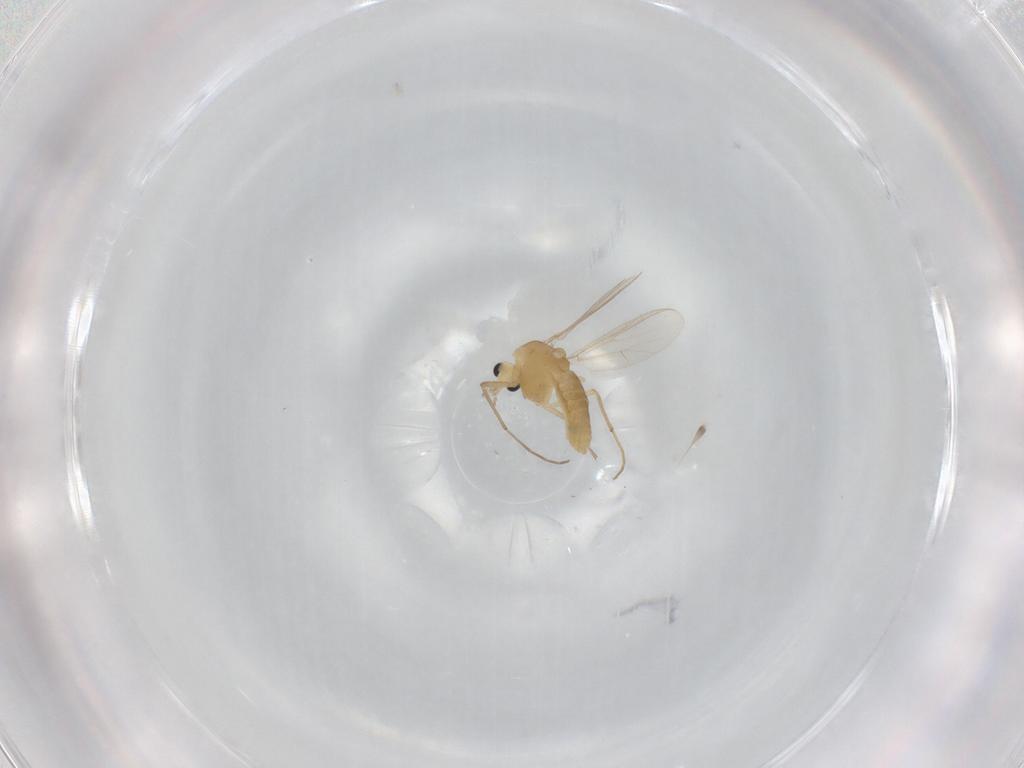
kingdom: Animalia
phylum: Arthropoda
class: Insecta
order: Diptera
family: Chironomidae
